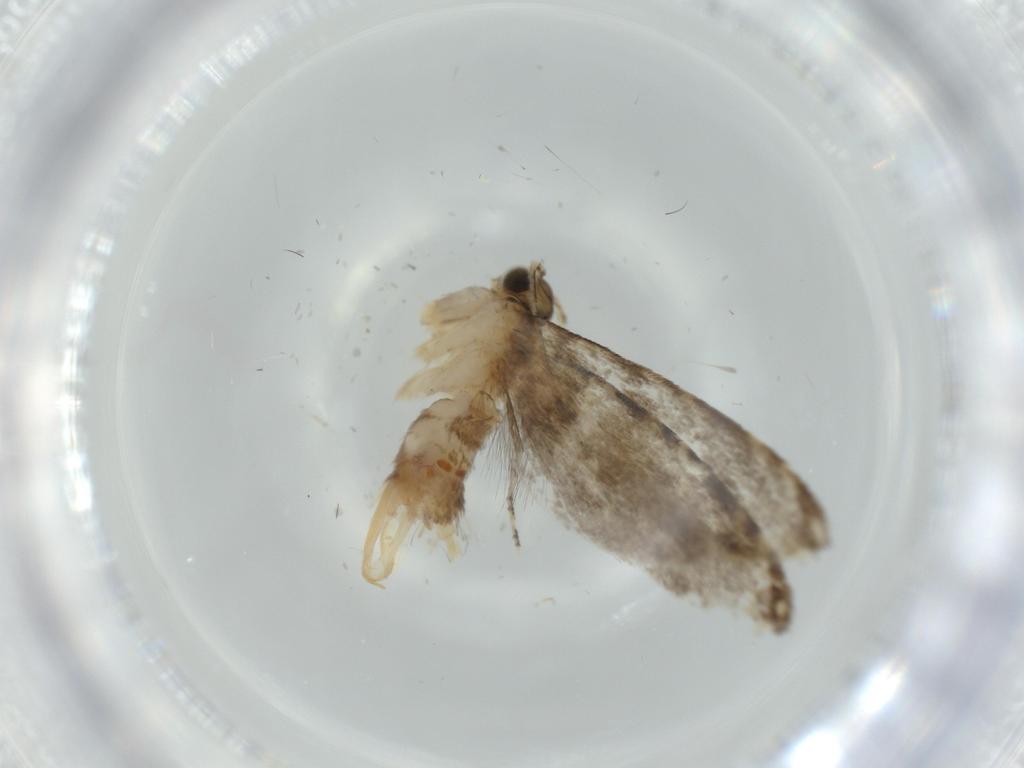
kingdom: Animalia
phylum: Arthropoda
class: Insecta
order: Lepidoptera
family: Tineidae
